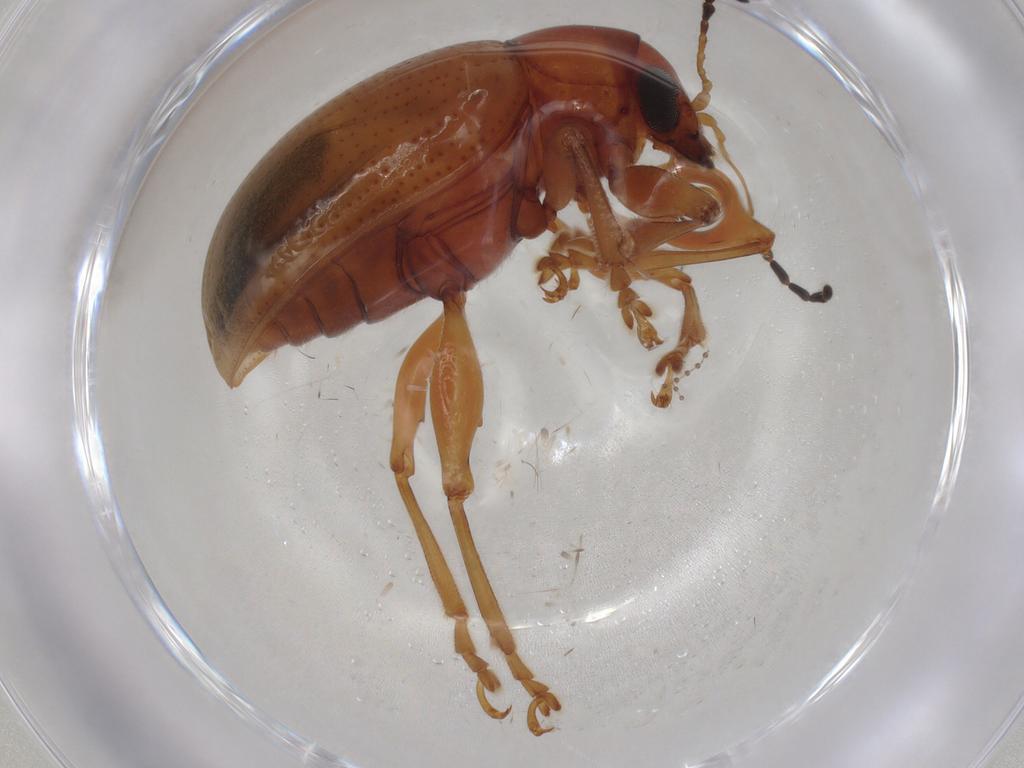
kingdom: Animalia
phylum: Arthropoda
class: Insecta
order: Coleoptera
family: Chrysomelidae
